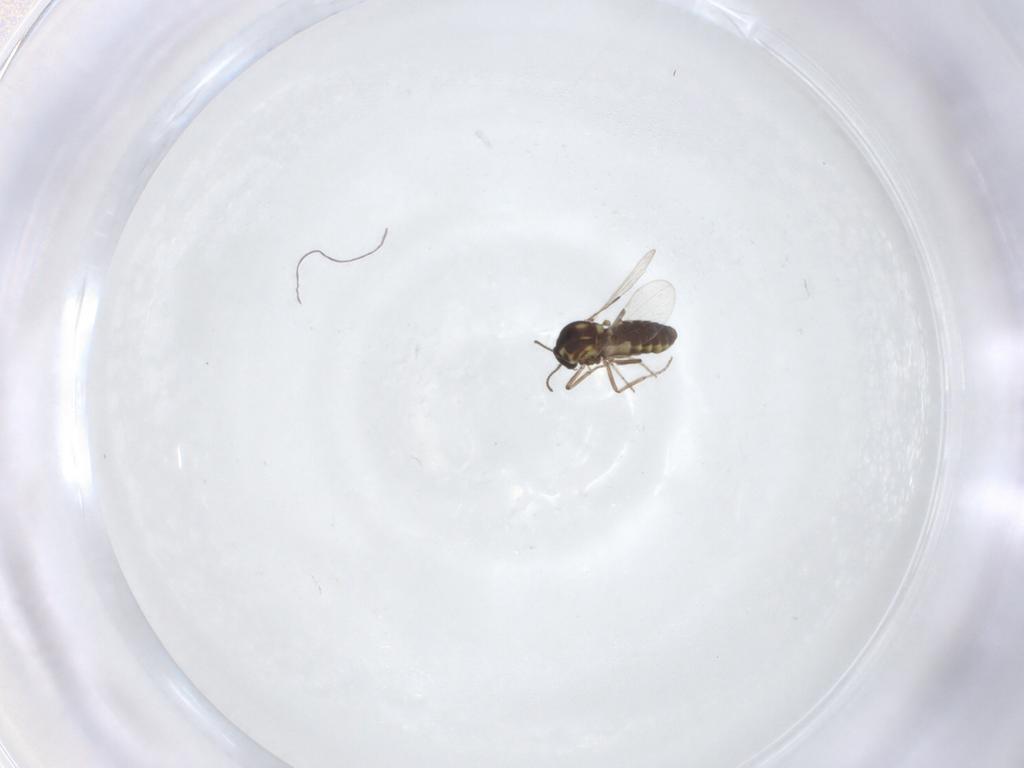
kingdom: Animalia
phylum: Arthropoda
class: Insecta
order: Diptera
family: Ceratopogonidae
